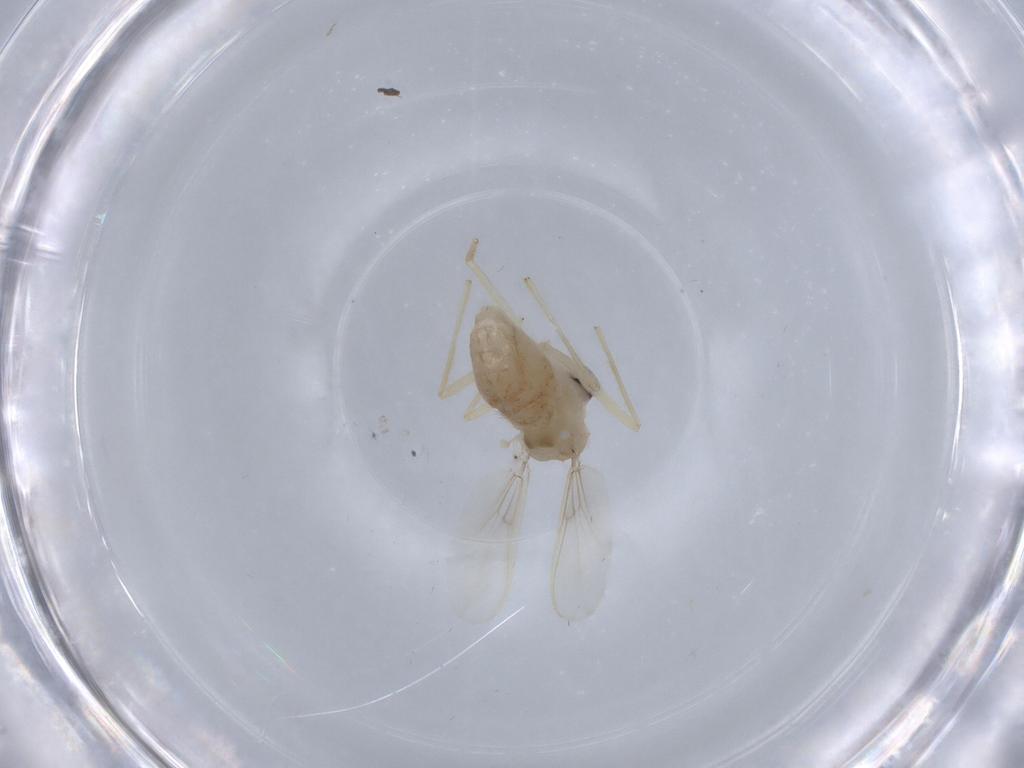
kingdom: Animalia
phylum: Arthropoda
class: Insecta
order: Diptera
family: Chironomidae
